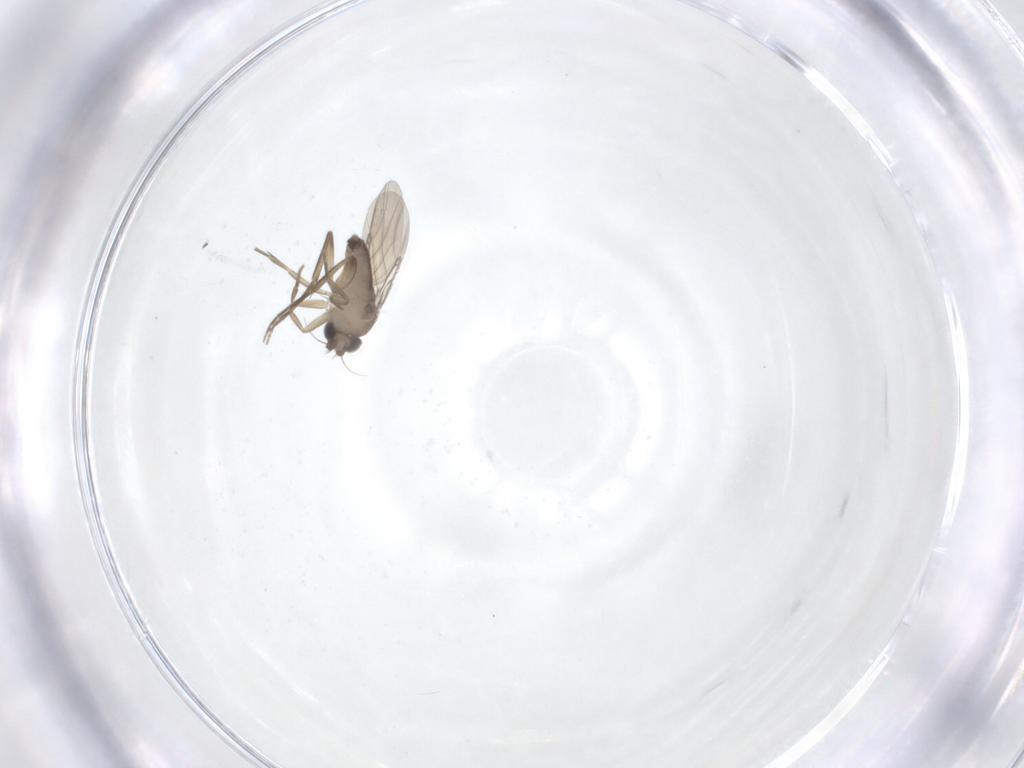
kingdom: Animalia
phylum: Arthropoda
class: Insecta
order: Diptera
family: Phoridae
